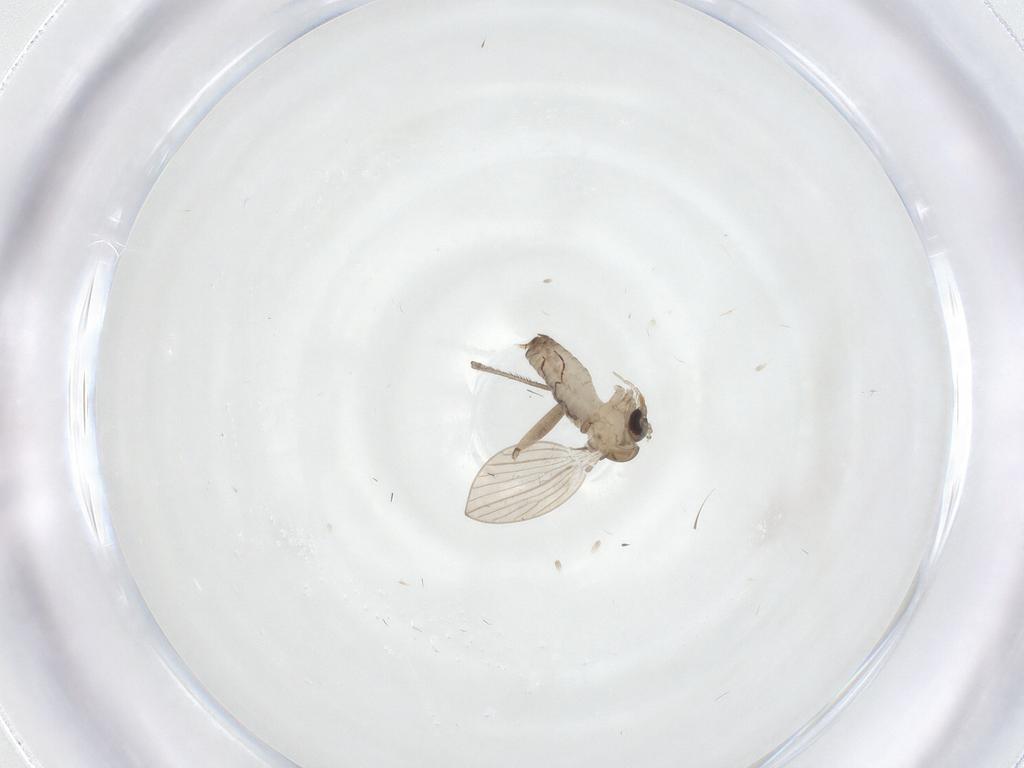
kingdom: Animalia
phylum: Arthropoda
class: Insecta
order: Diptera
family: Psychodidae
